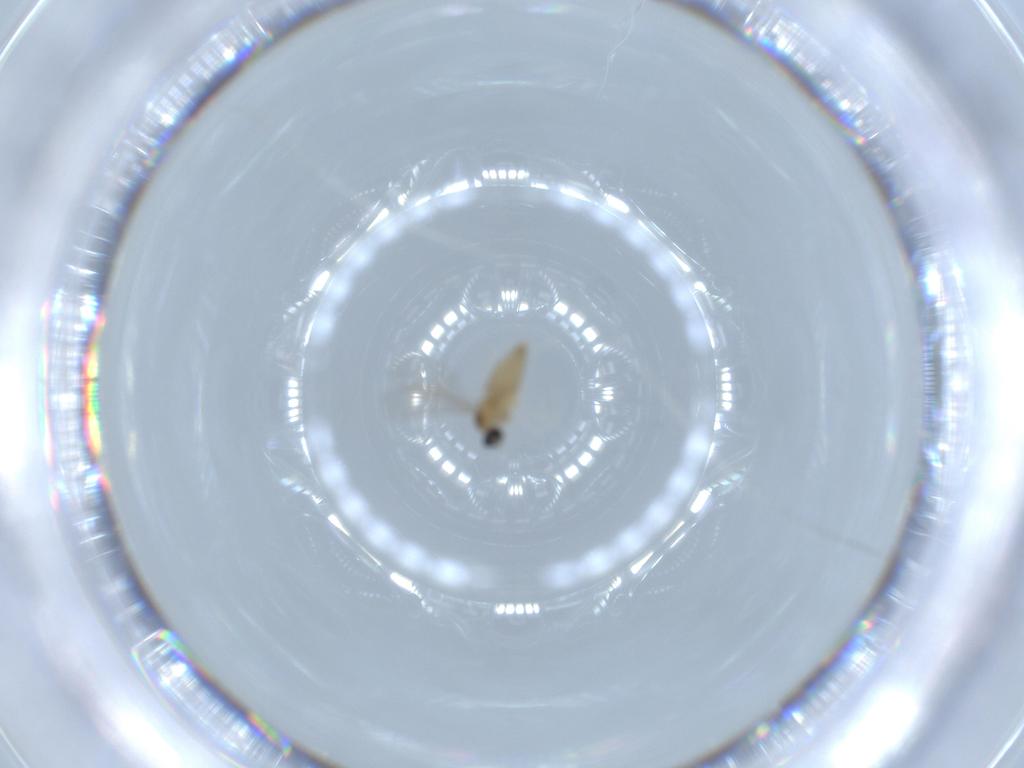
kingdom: Animalia
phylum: Arthropoda
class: Insecta
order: Diptera
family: Cecidomyiidae
